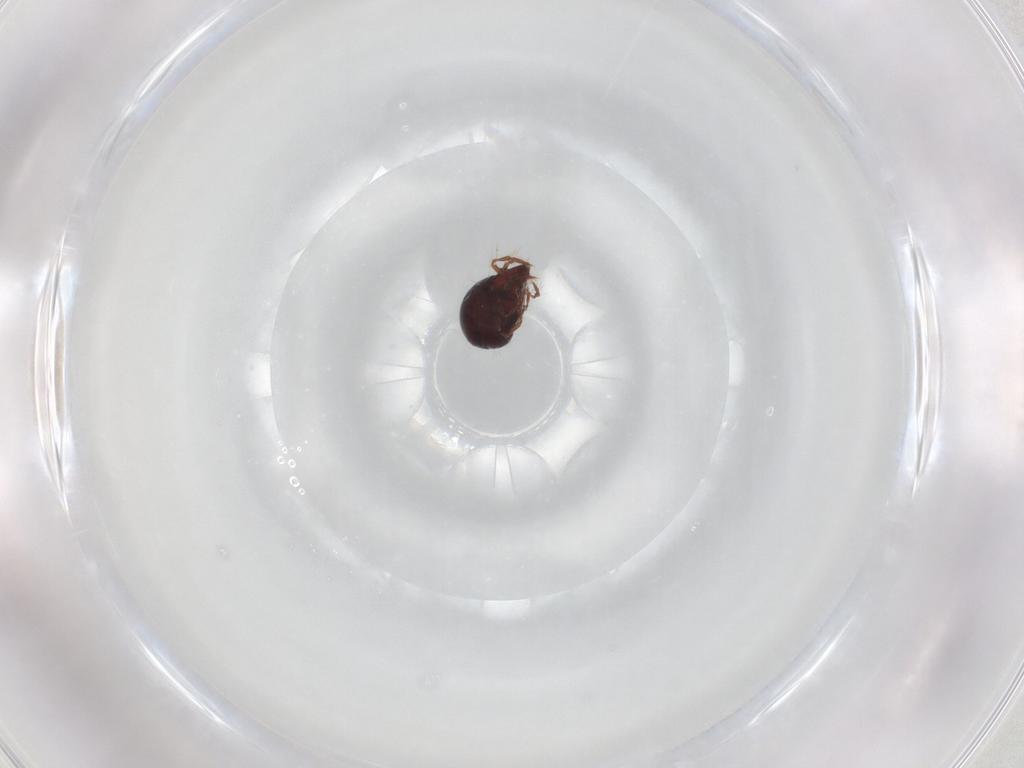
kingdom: Animalia
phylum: Arthropoda
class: Arachnida
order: Sarcoptiformes
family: Ceratoppiidae
